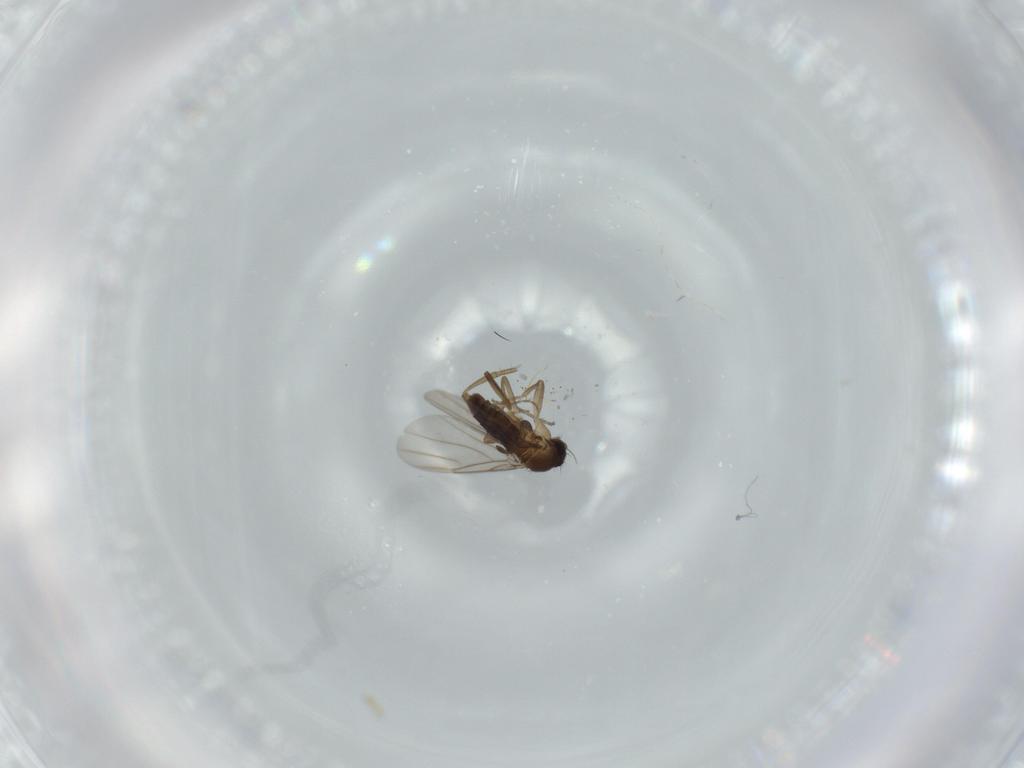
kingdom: Animalia
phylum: Arthropoda
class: Insecta
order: Diptera
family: Phoridae
